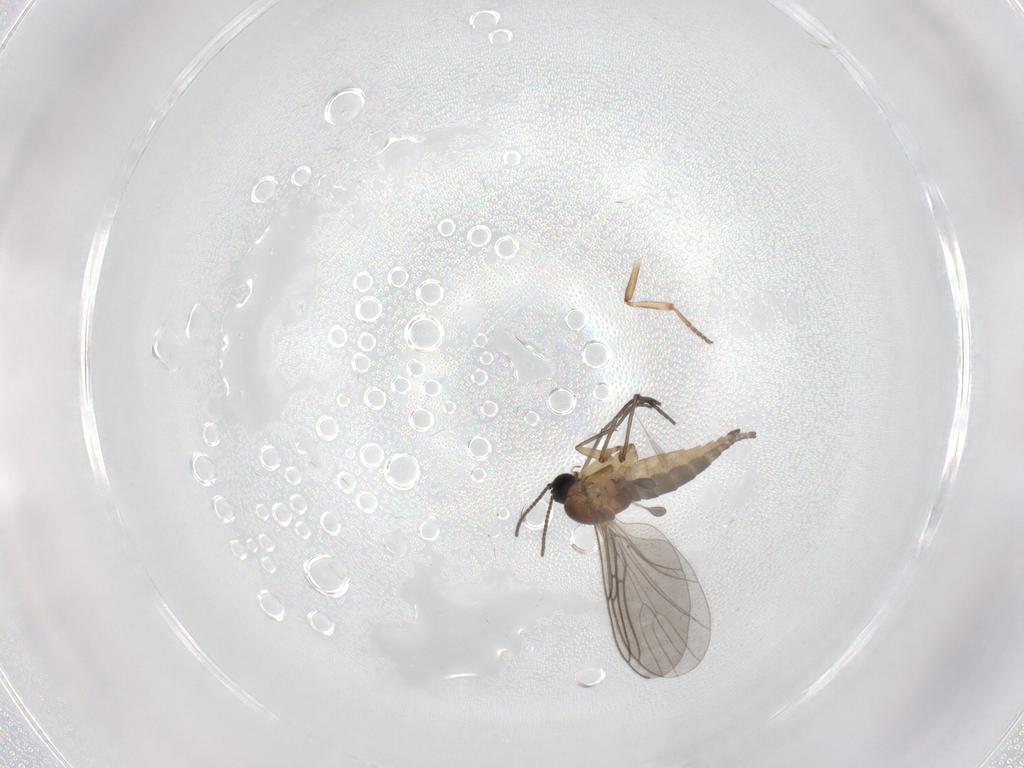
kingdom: Animalia
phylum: Arthropoda
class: Insecta
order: Diptera
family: Sciaridae
